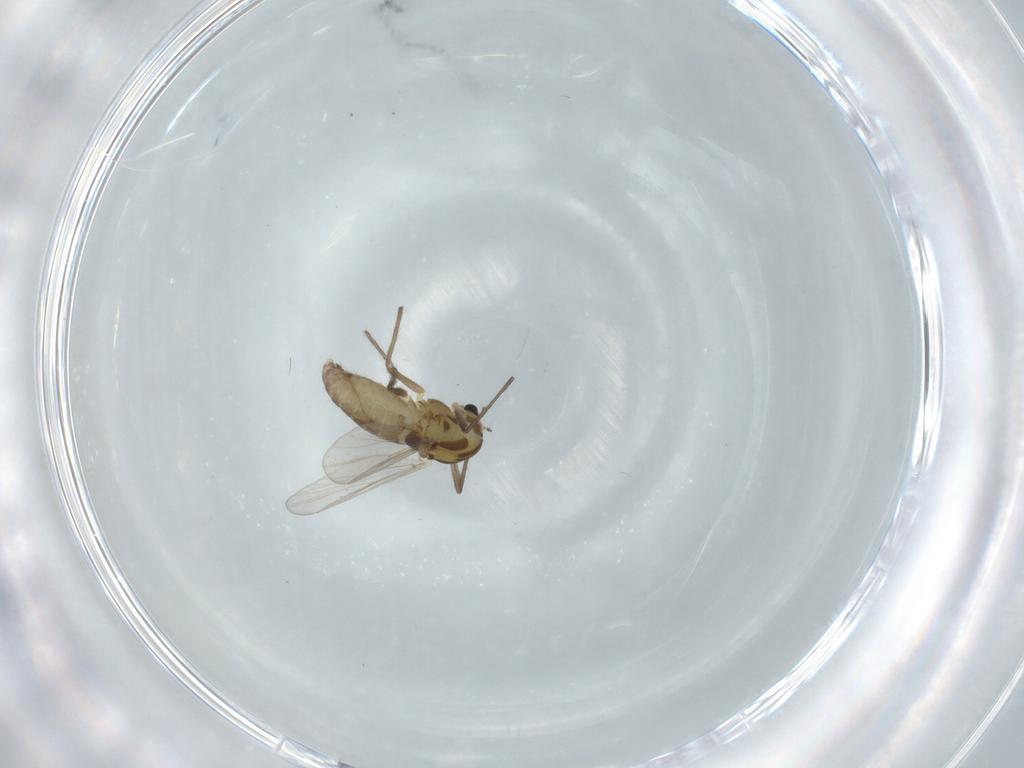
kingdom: Animalia
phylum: Arthropoda
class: Insecta
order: Diptera
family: Chironomidae
